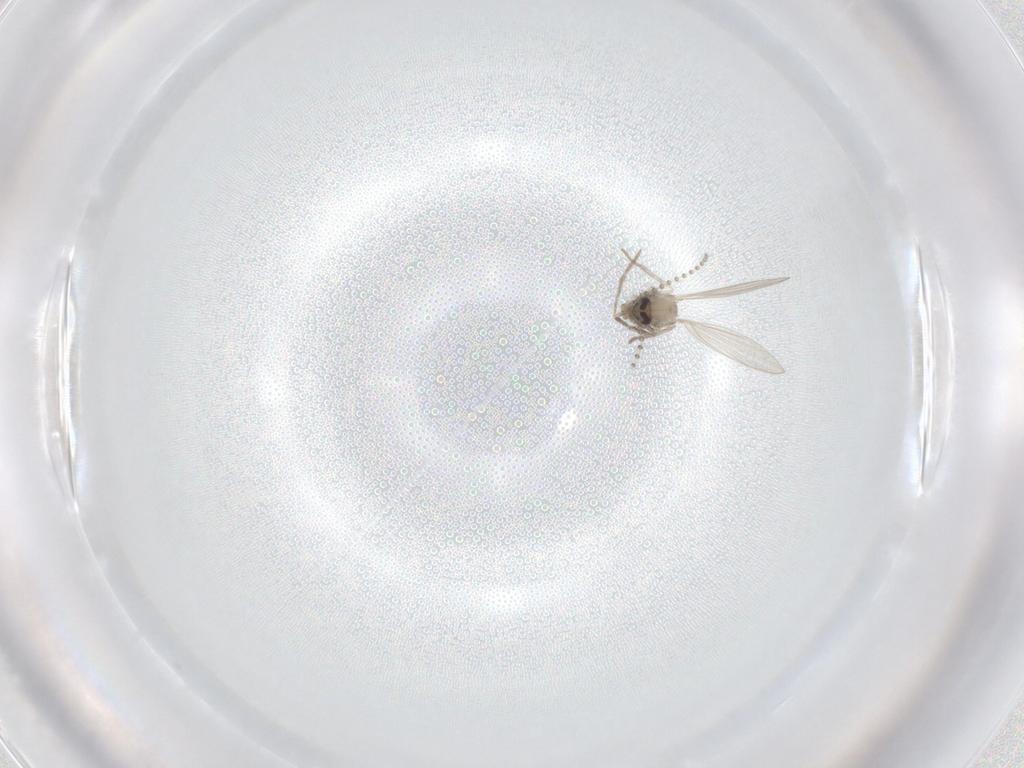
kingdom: Animalia
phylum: Arthropoda
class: Insecta
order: Diptera
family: Psychodidae
